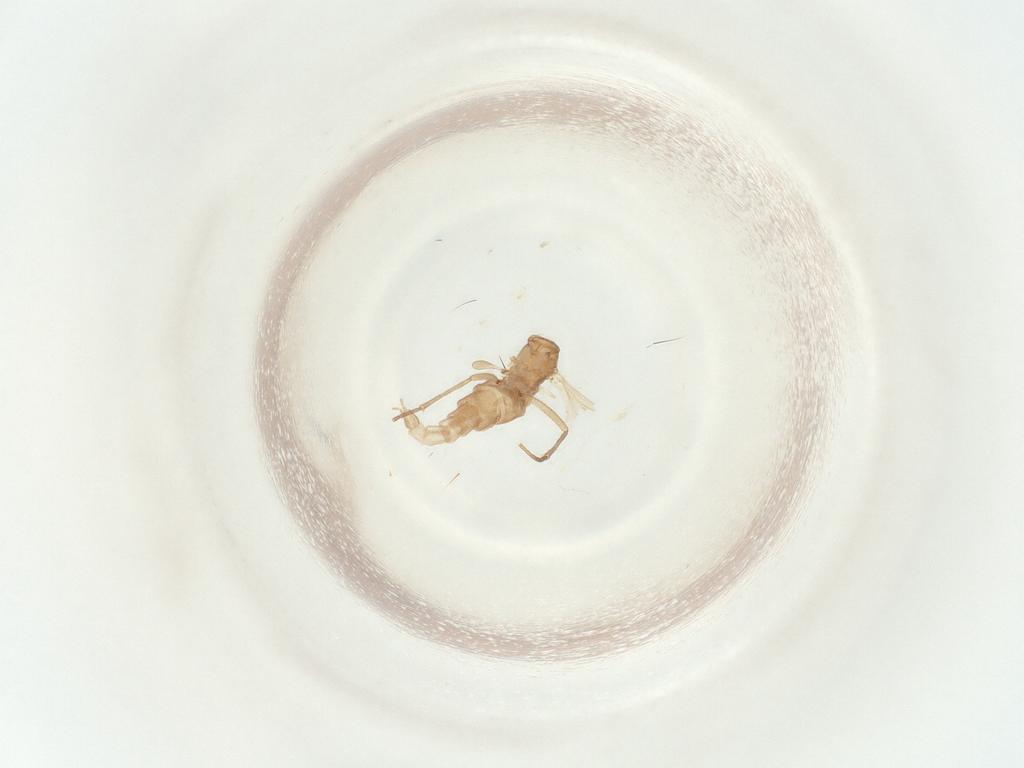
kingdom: Animalia
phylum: Arthropoda
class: Insecta
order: Diptera
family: Sciaridae
